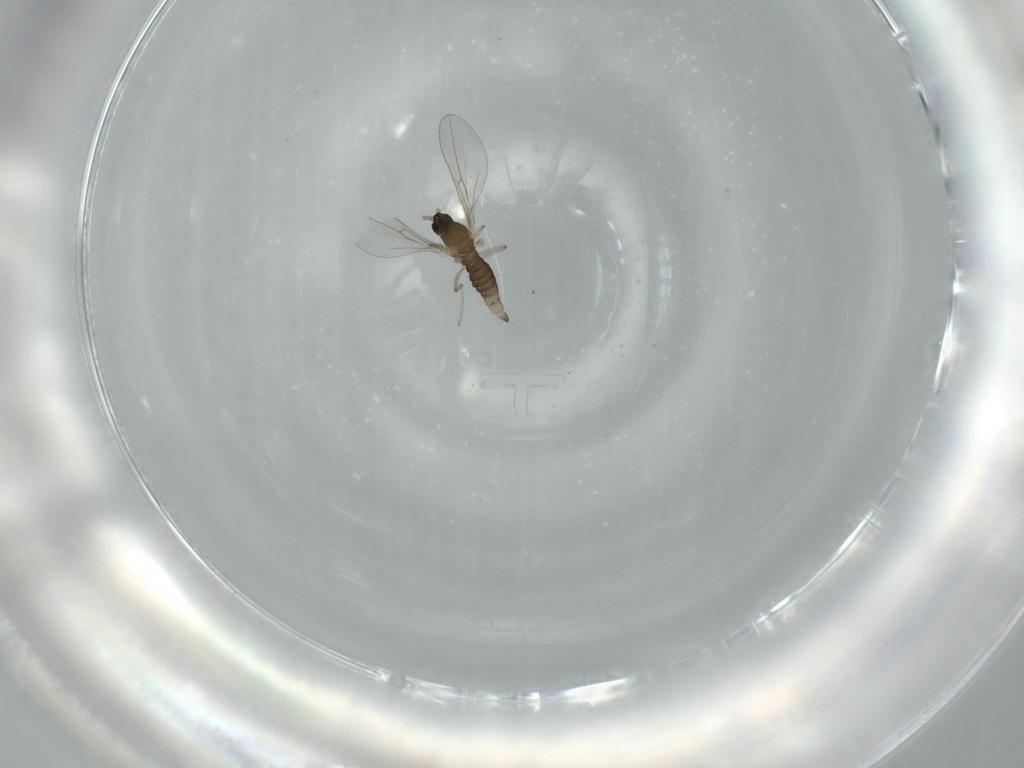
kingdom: Animalia
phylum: Arthropoda
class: Insecta
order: Diptera
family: Cecidomyiidae
